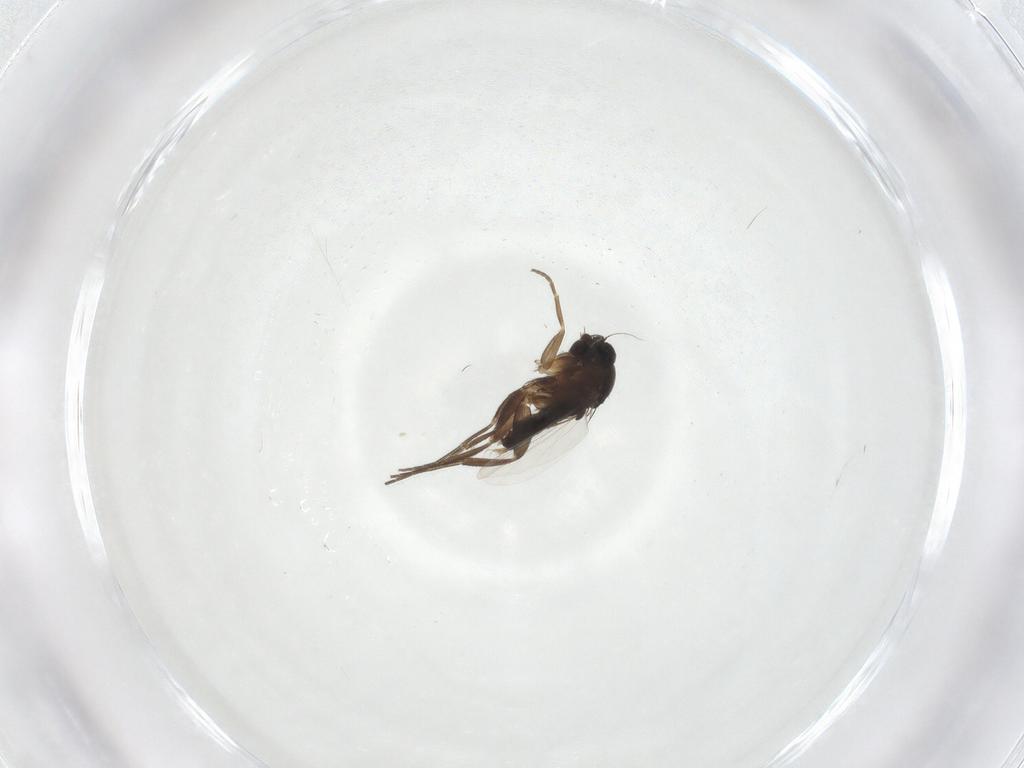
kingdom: Animalia
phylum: Arthropoda
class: Insecta
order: Diptera
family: Phoridae
